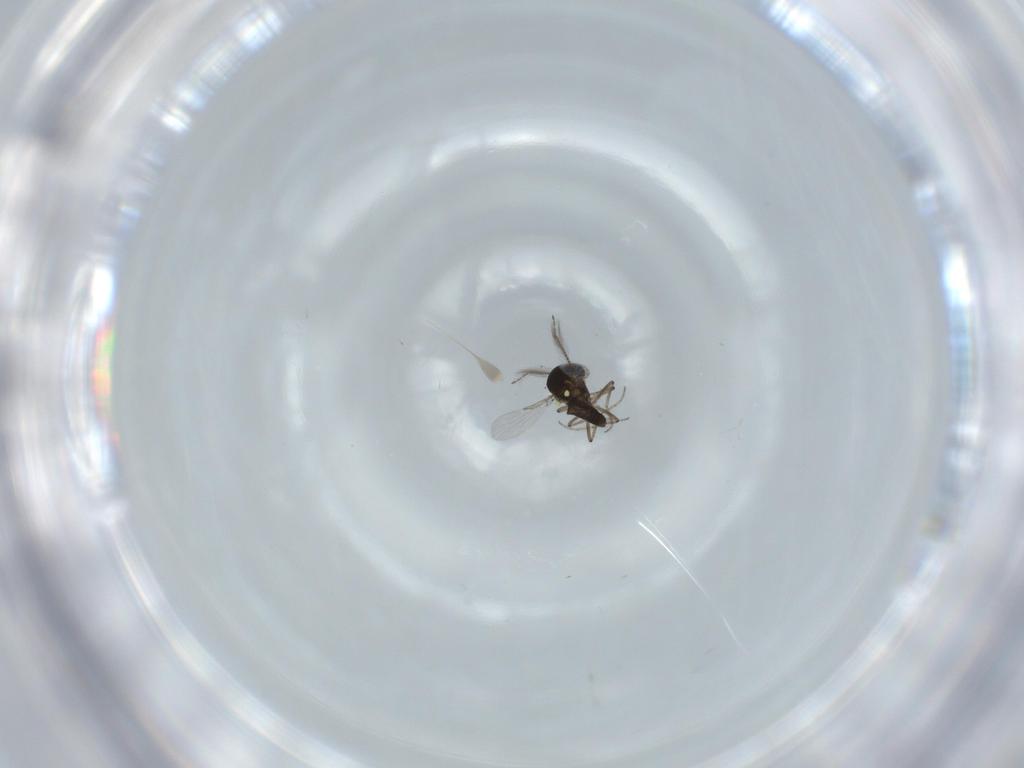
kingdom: Animalia
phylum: Arthropoda
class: Insecta
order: Diptera
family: Ceratopogonidae
